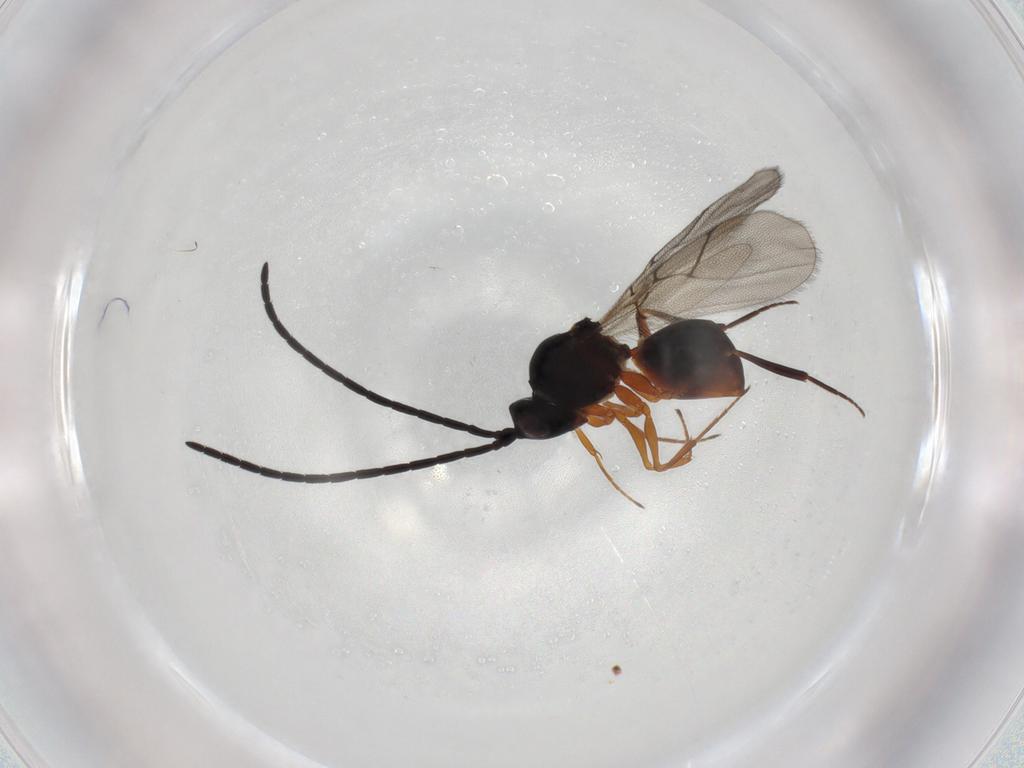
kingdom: Animalia
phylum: Arthropoda
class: Insecta
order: Hymenoptera
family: Figitidae
